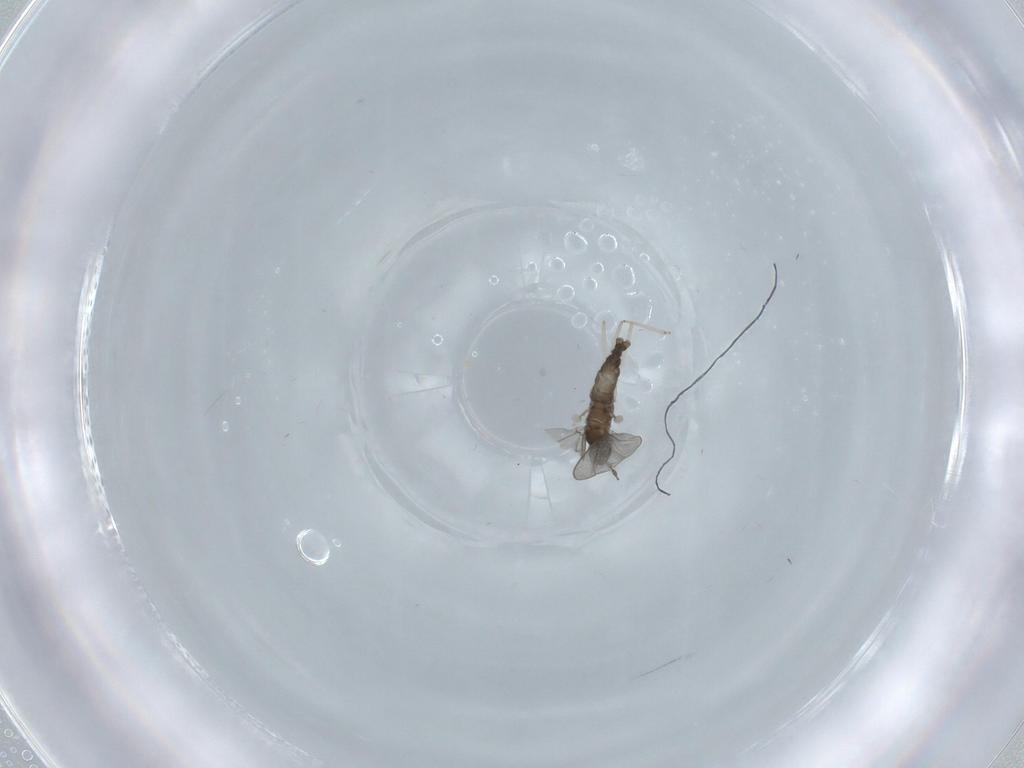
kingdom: Animalia
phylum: Arthropoda
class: Insecta
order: Diptera
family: Cecidomyiidae
